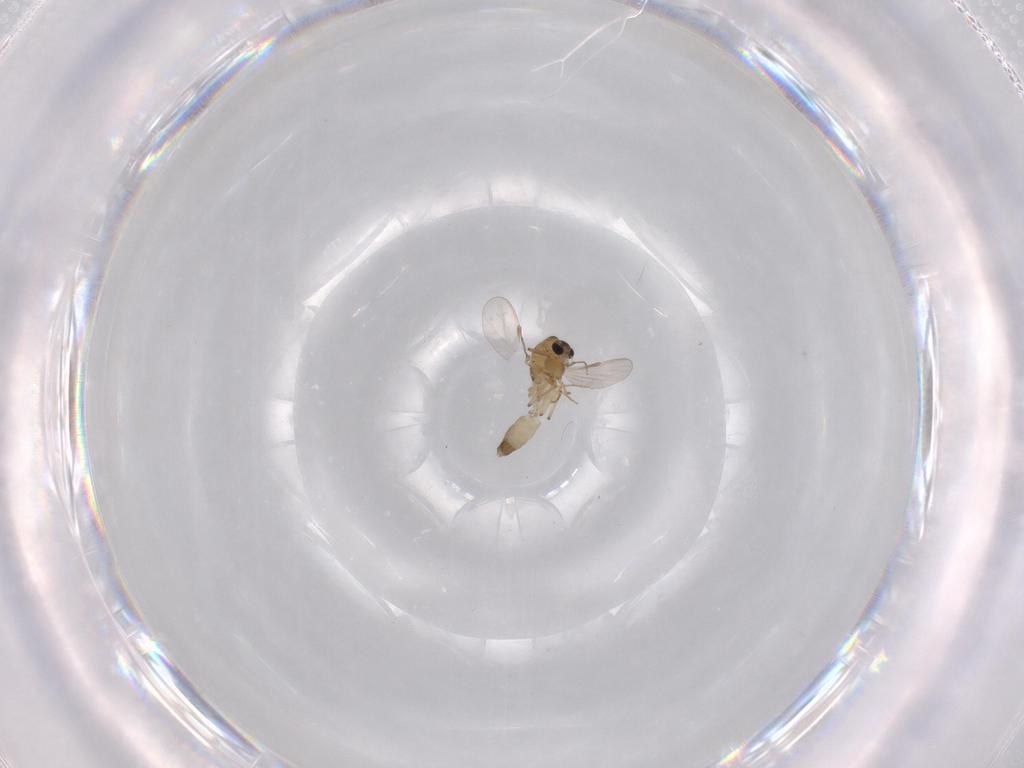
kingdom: Animalia
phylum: Arthropoda
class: Insecta
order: Diptera
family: Chironomidae
